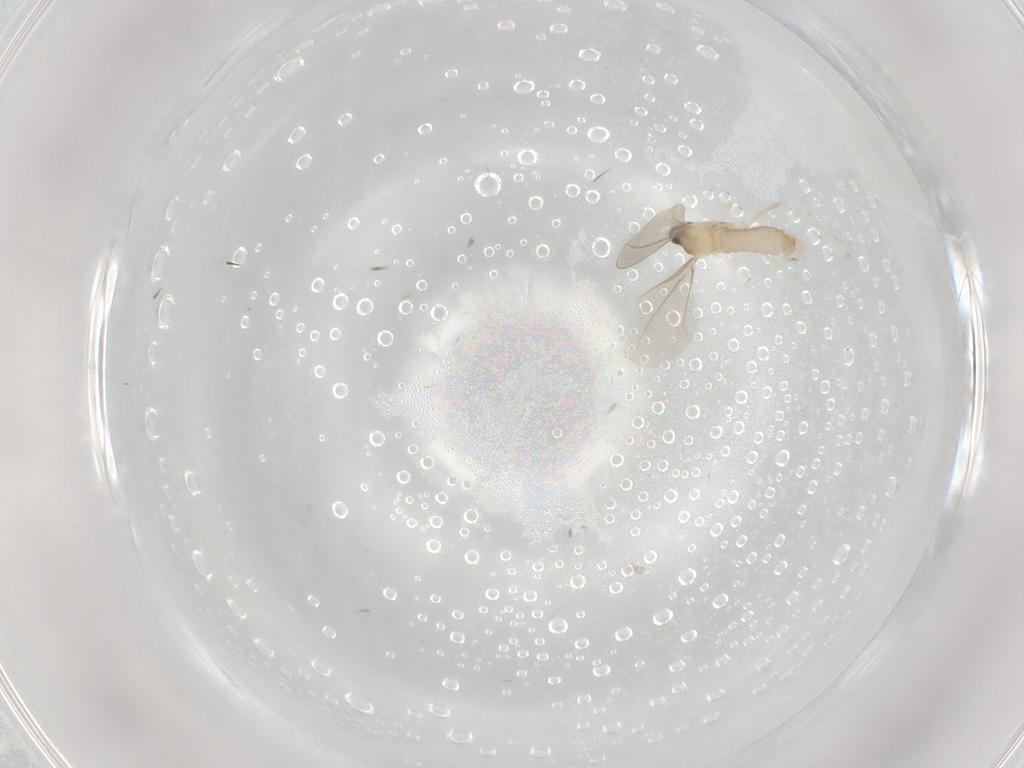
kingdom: Animalia
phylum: Arthropoda
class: Insecta
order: Diptera
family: Cecidomyiidae
